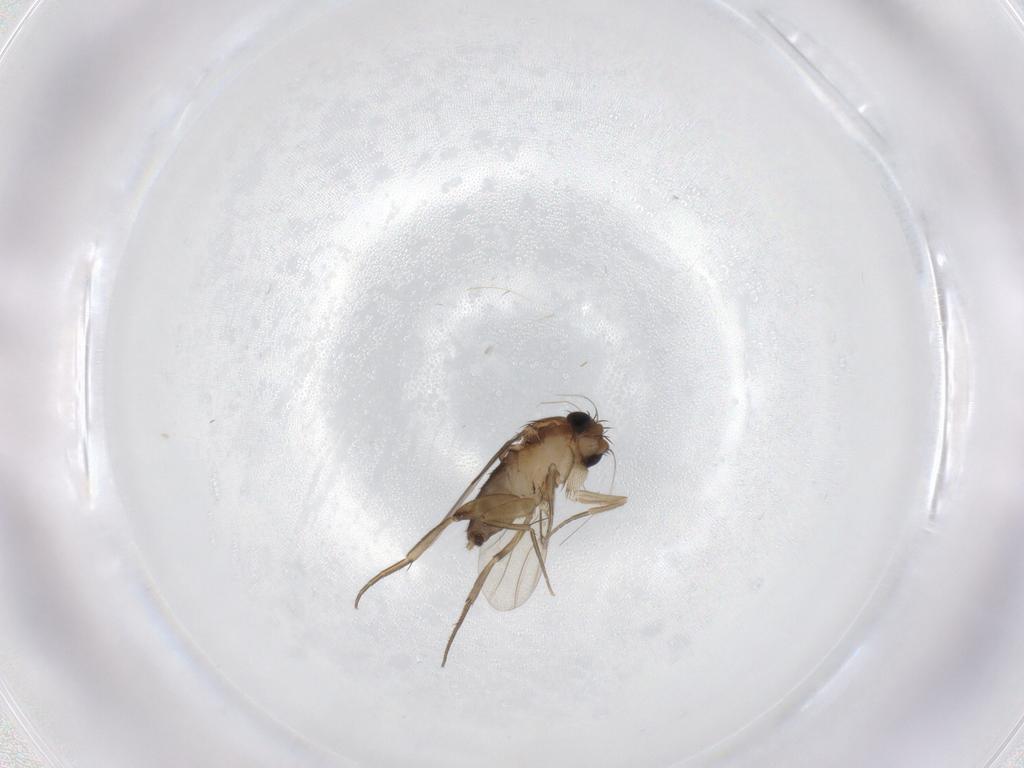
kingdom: Animalia
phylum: Arthropoda
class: Insecta
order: Diptera
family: Phoridae
